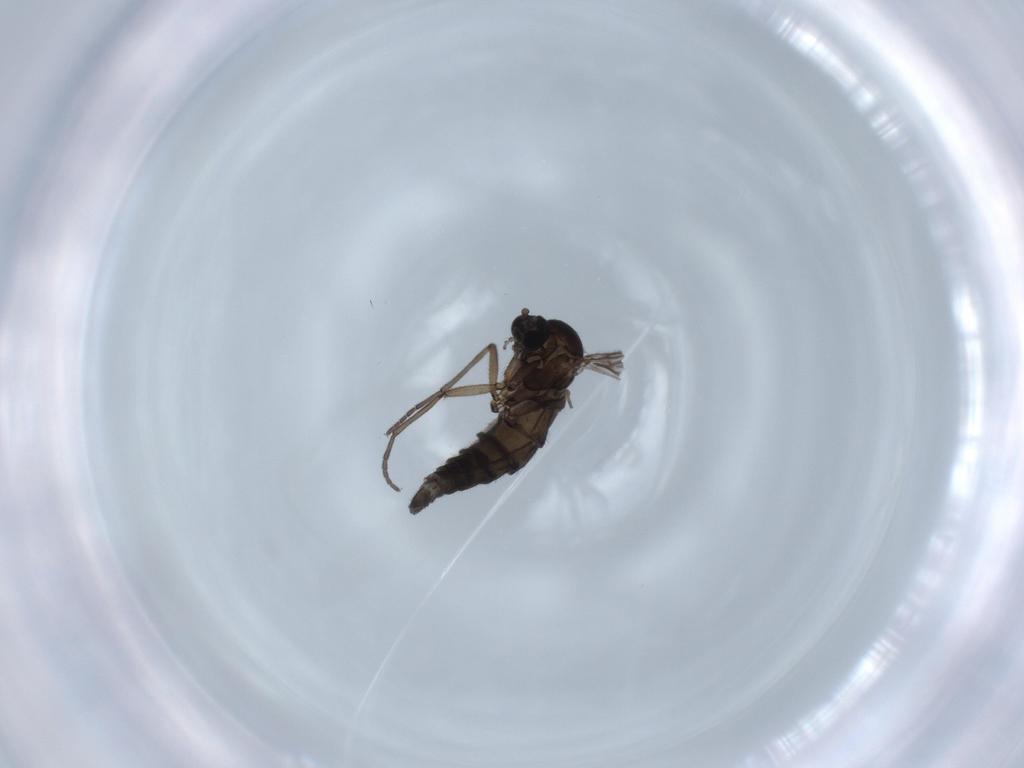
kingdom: Animalia
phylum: Arthropoda
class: Insecta
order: Diptera
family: Sciaridae
